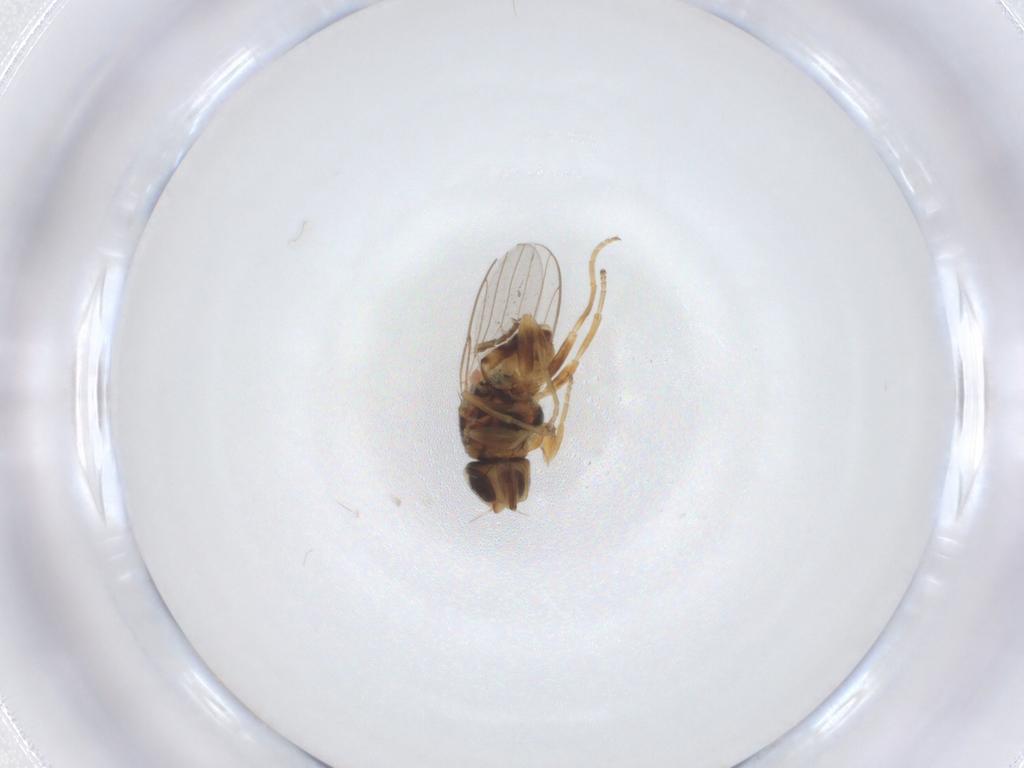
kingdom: Animalia
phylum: Arthropoda
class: Insecta
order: Diptera
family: Chloropidae
